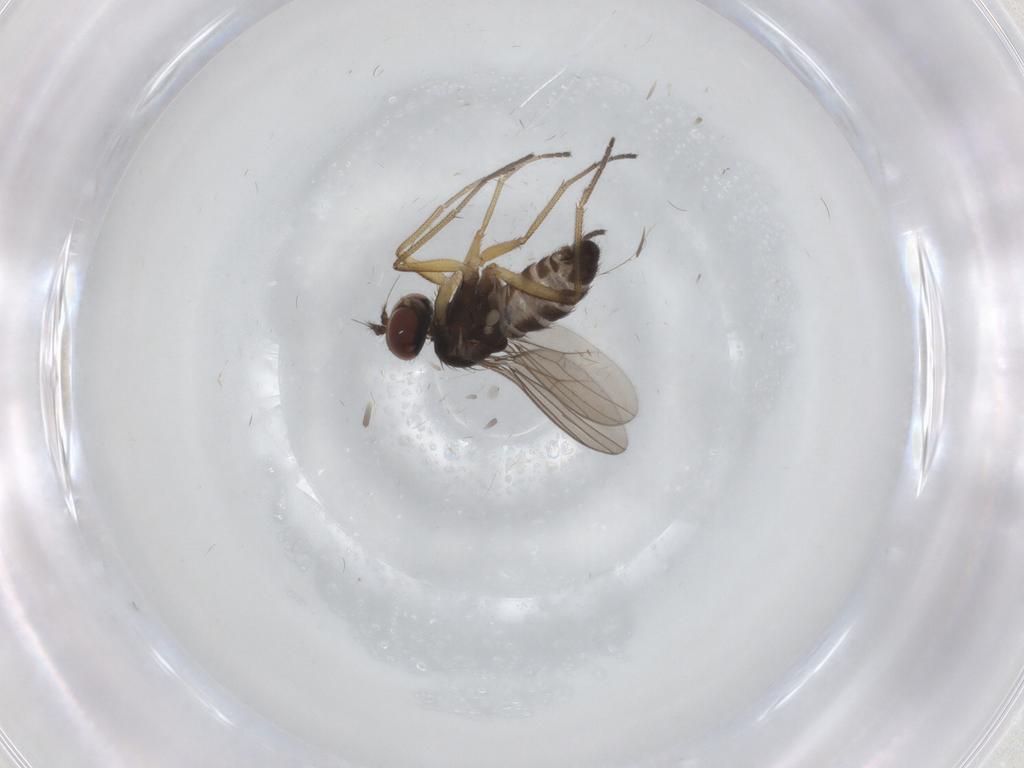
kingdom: Animalia
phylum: Arthropoda
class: Insecta
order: Diptera
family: Dolichopodidae
